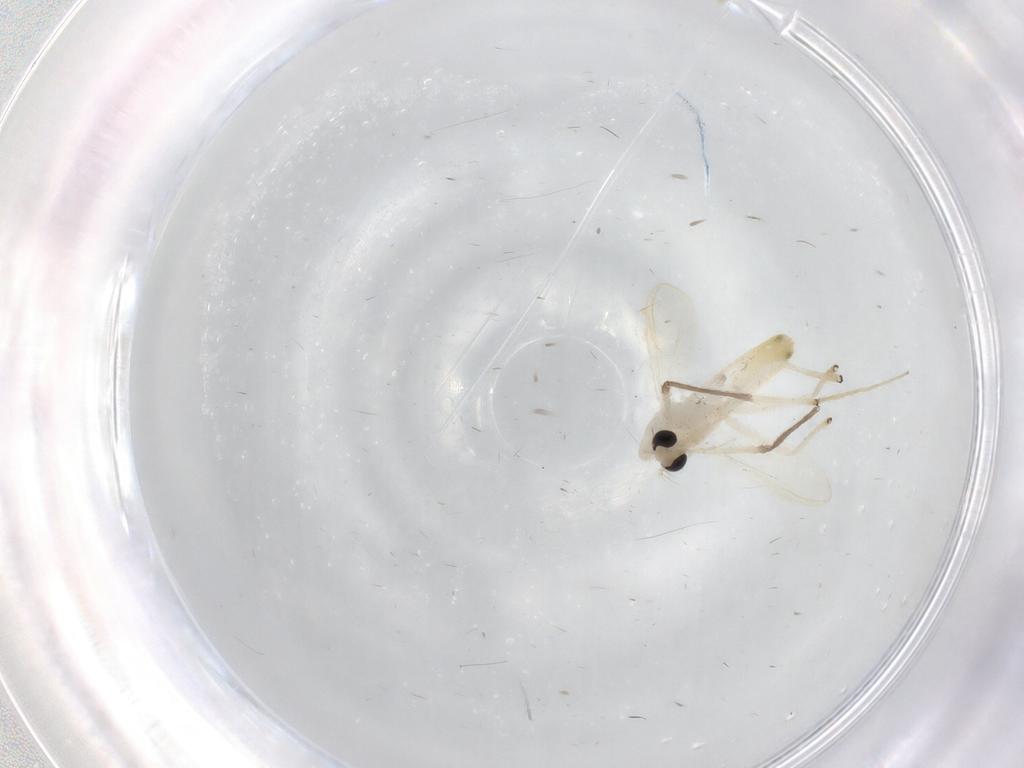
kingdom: Animalia
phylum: Arthropoda
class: Insecta
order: Diptera
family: Chironomidae
